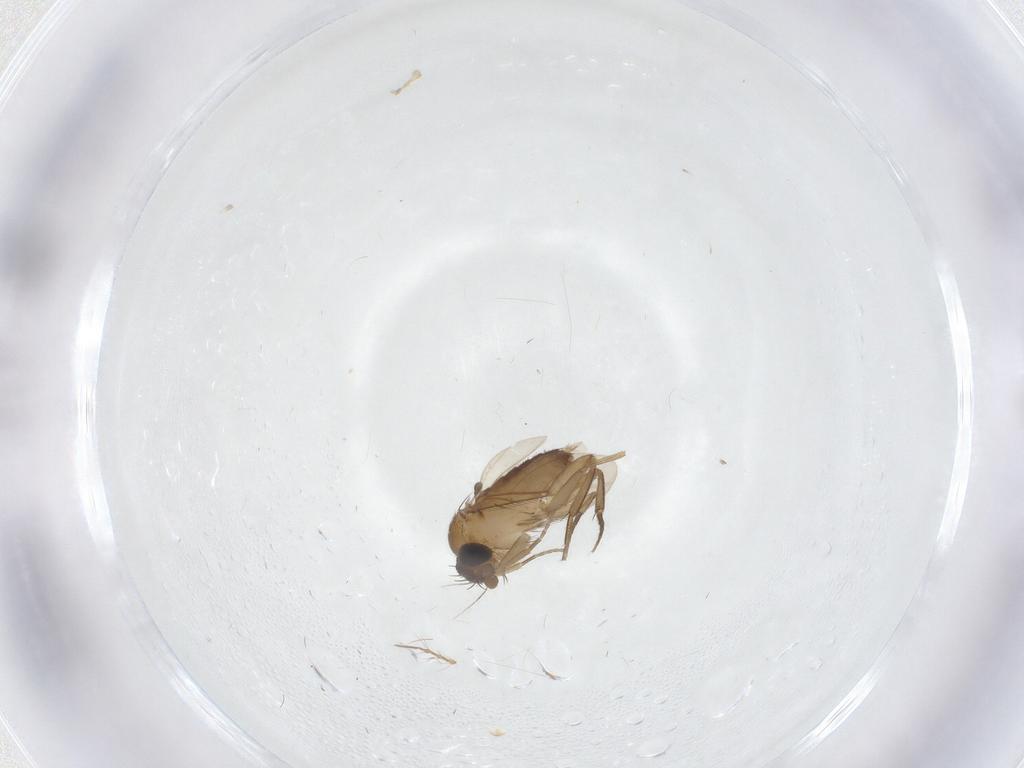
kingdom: Animalia
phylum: Arthropoda
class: Insecta
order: Diptera
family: Phoridae
